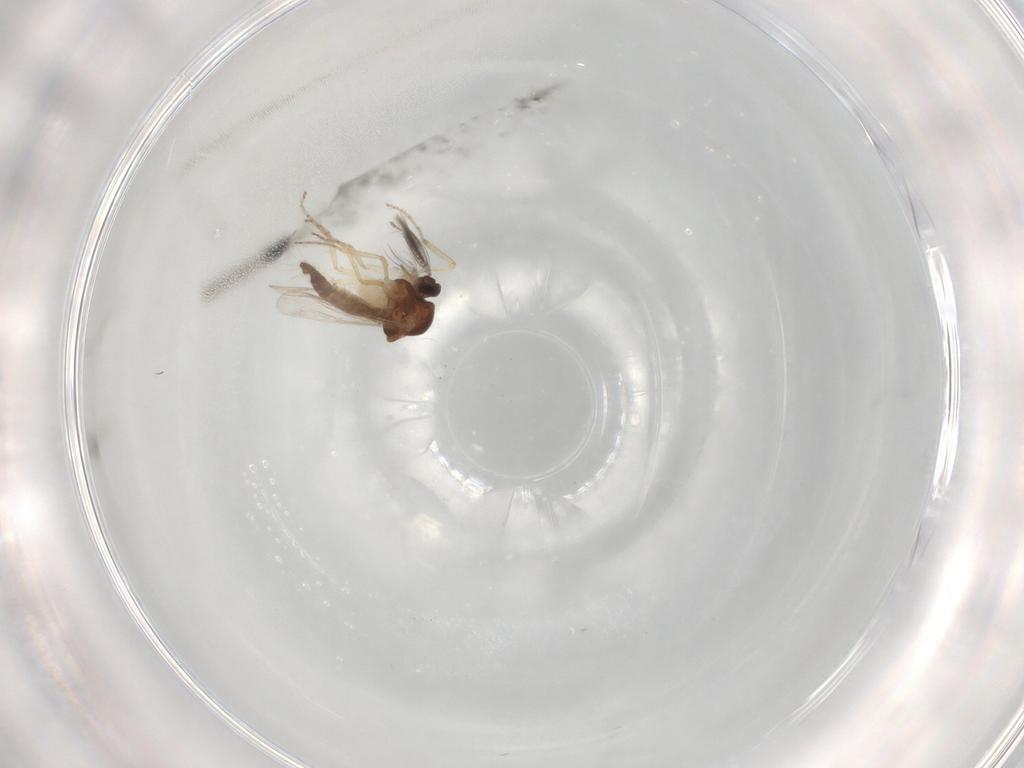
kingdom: Animalia
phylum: Arthropoda
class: Insecta
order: Diptera
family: Ceratopogonidae
